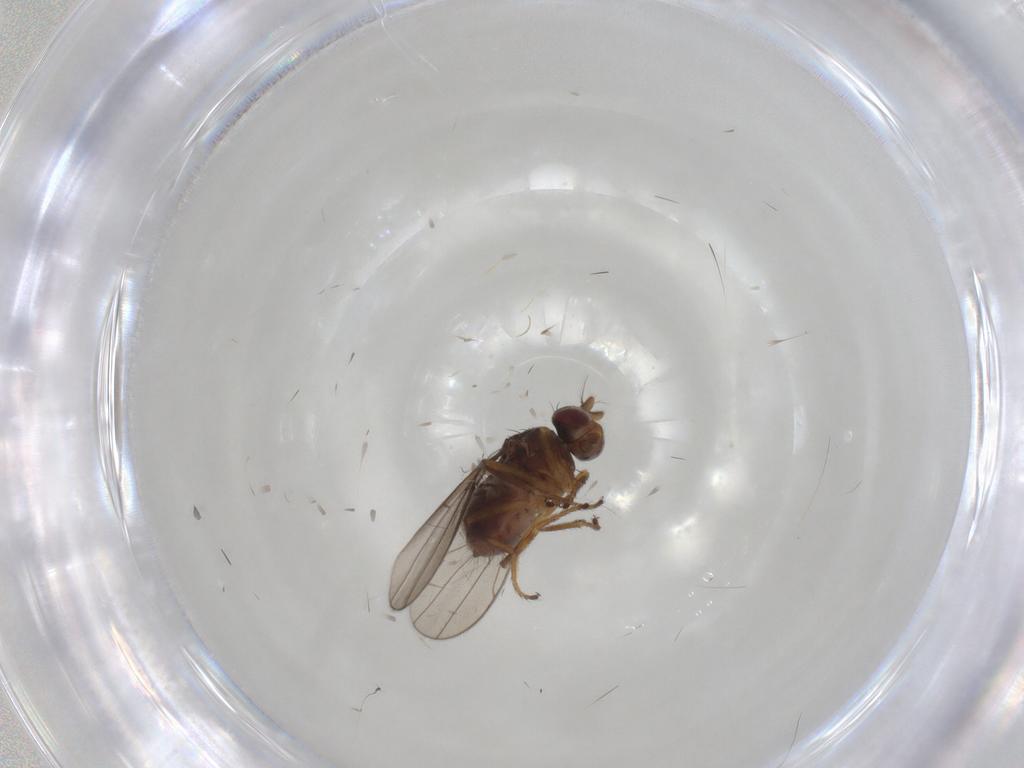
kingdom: Animalia
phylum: Arthropoda
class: Insecta
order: Diptera
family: Ephydridae
